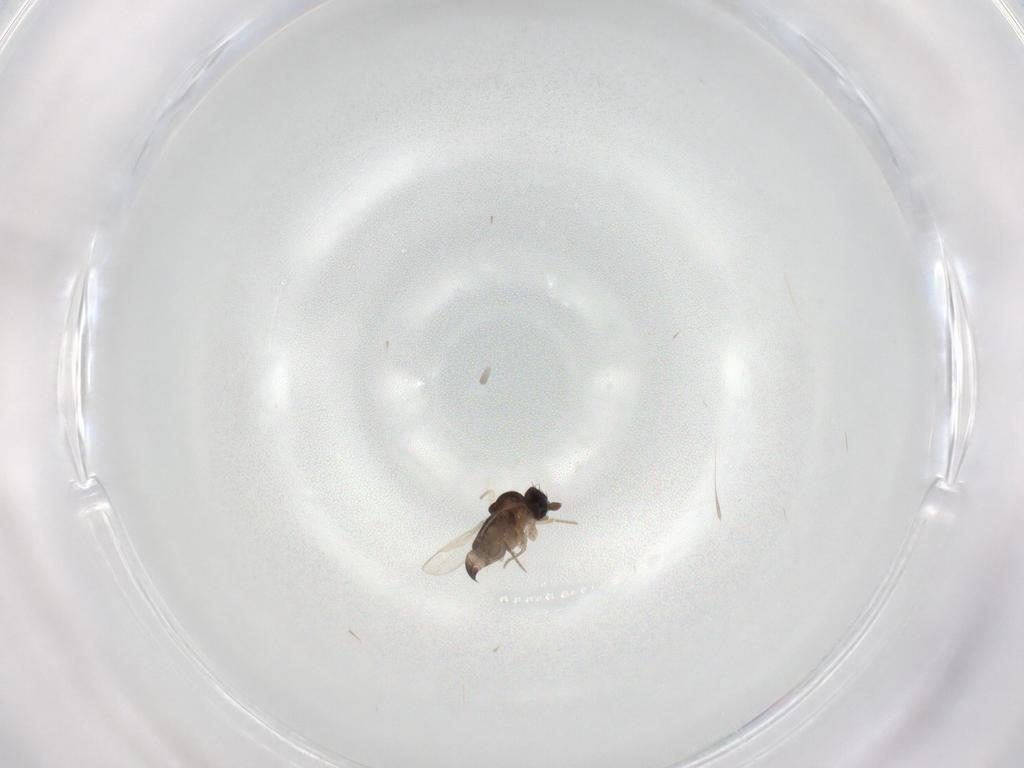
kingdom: Animalia
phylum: Arthropoda
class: Insecta
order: Diptera
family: Phoridae
